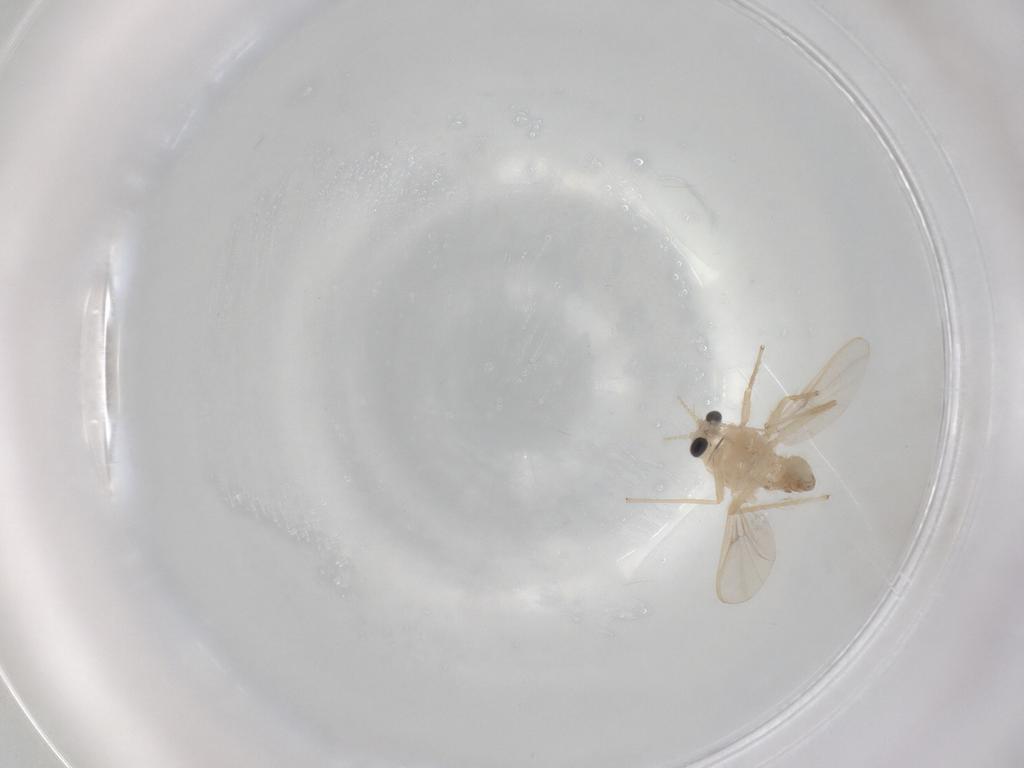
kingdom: Animalia
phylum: Arthropoda
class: Insecta
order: Diptera
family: Chironomidae
